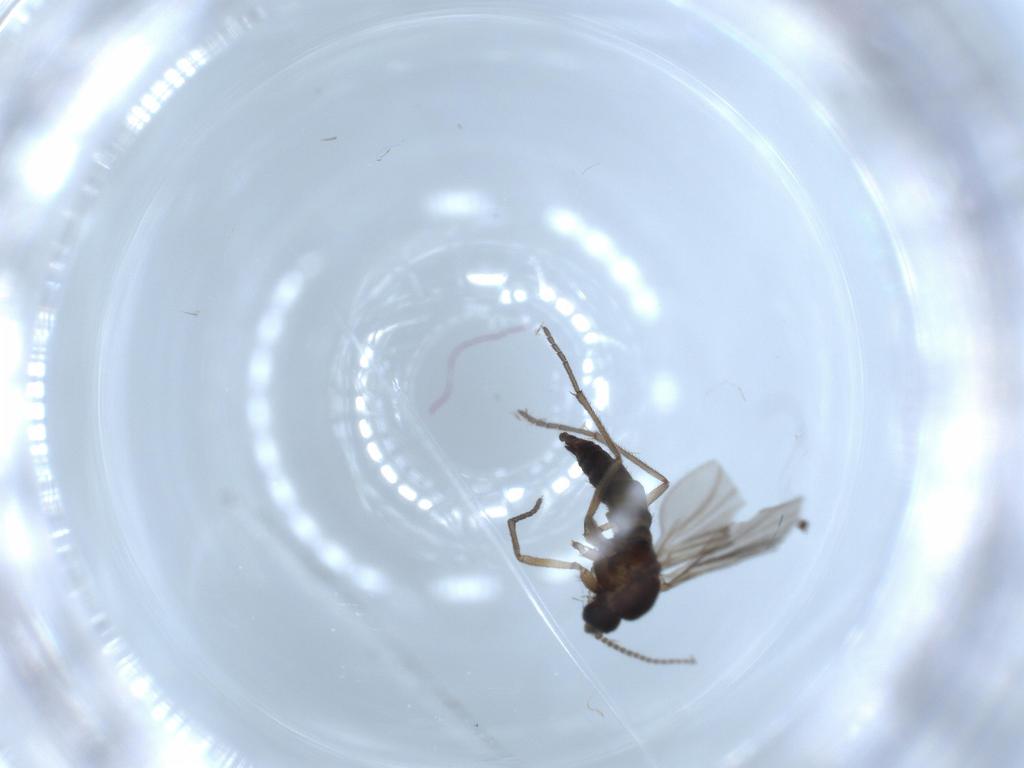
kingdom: Animalia
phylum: Arthropoda
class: Insecta
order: Diptera
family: Sciaridae
